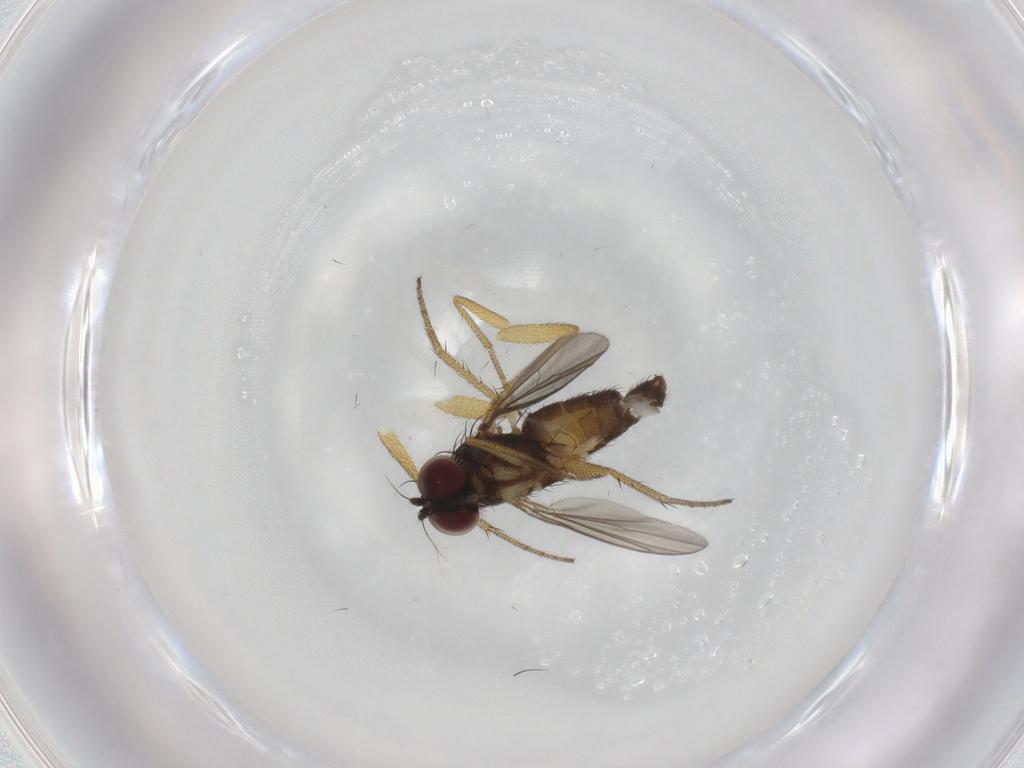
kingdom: Animalia
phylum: Arthropoda
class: Insecta
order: Diptera
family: Dolichopodidae
